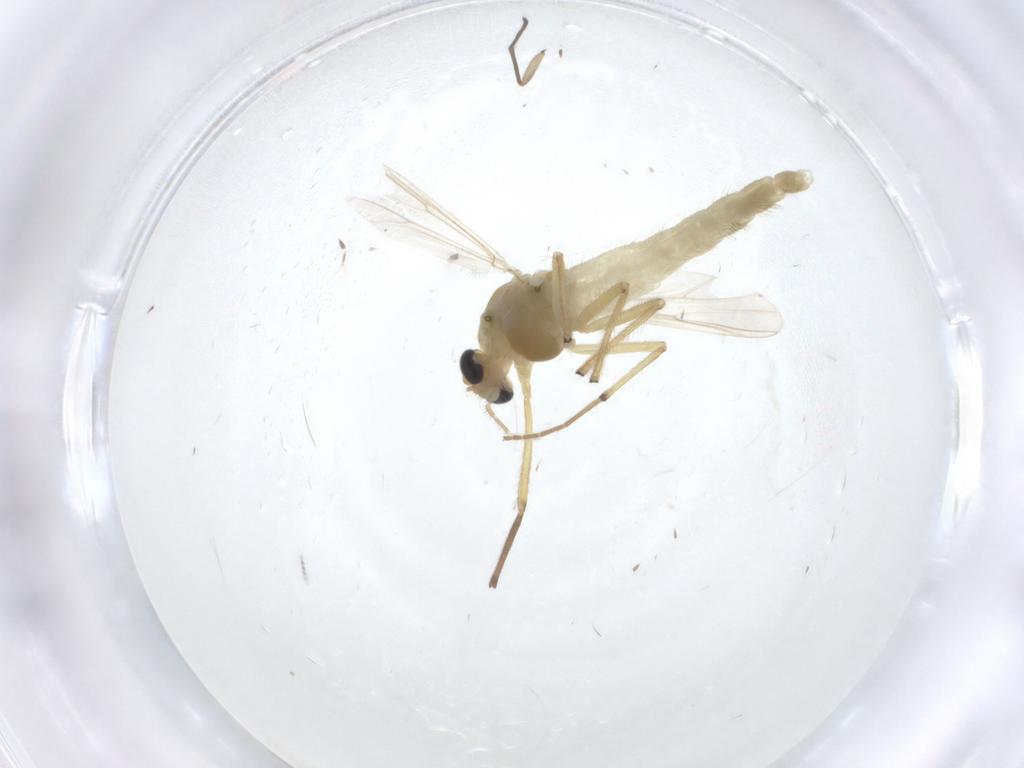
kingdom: Animalia
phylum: Arthropoda
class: Insecta
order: Diptera
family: Chironomidae
